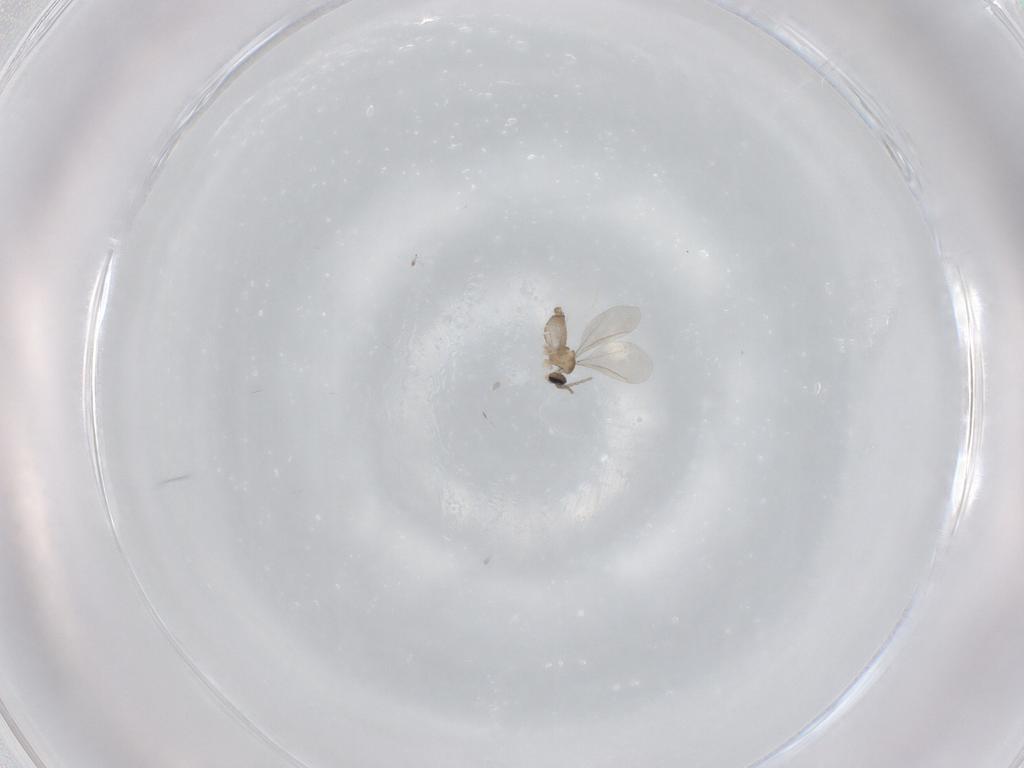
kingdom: Animalia
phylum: Arthropoda
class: Insecta
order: Diptera
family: Cecidomyiidae
